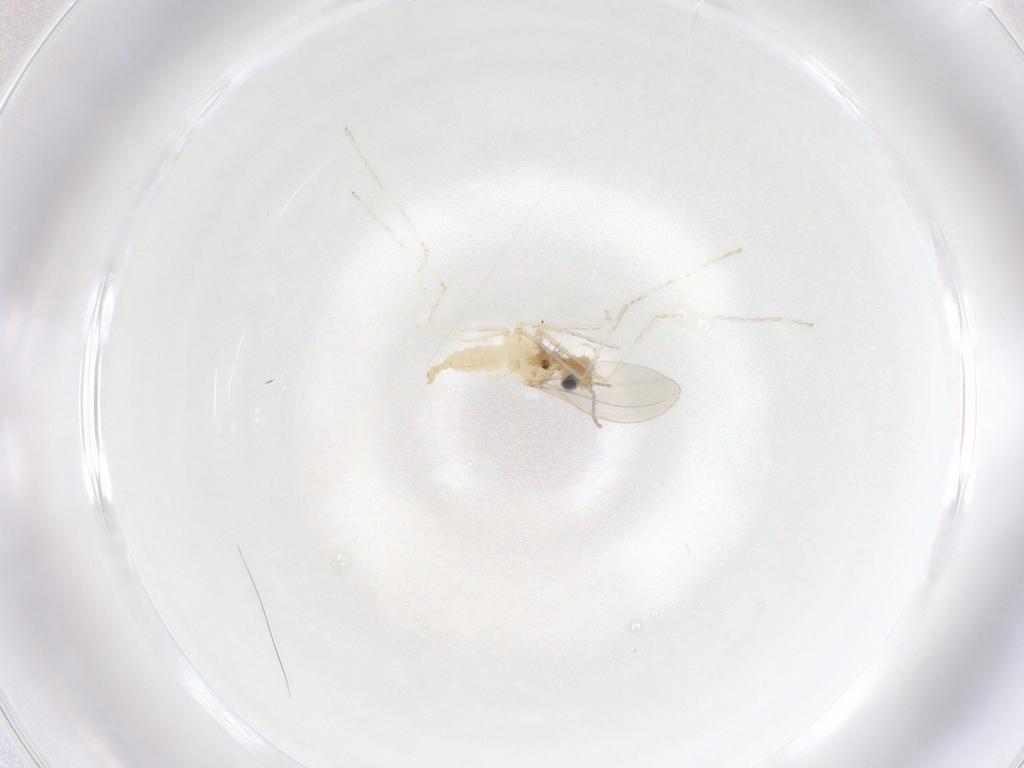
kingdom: Animalia
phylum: Arthropoda
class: Insecta
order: Diptera
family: Cecidomyiidae
